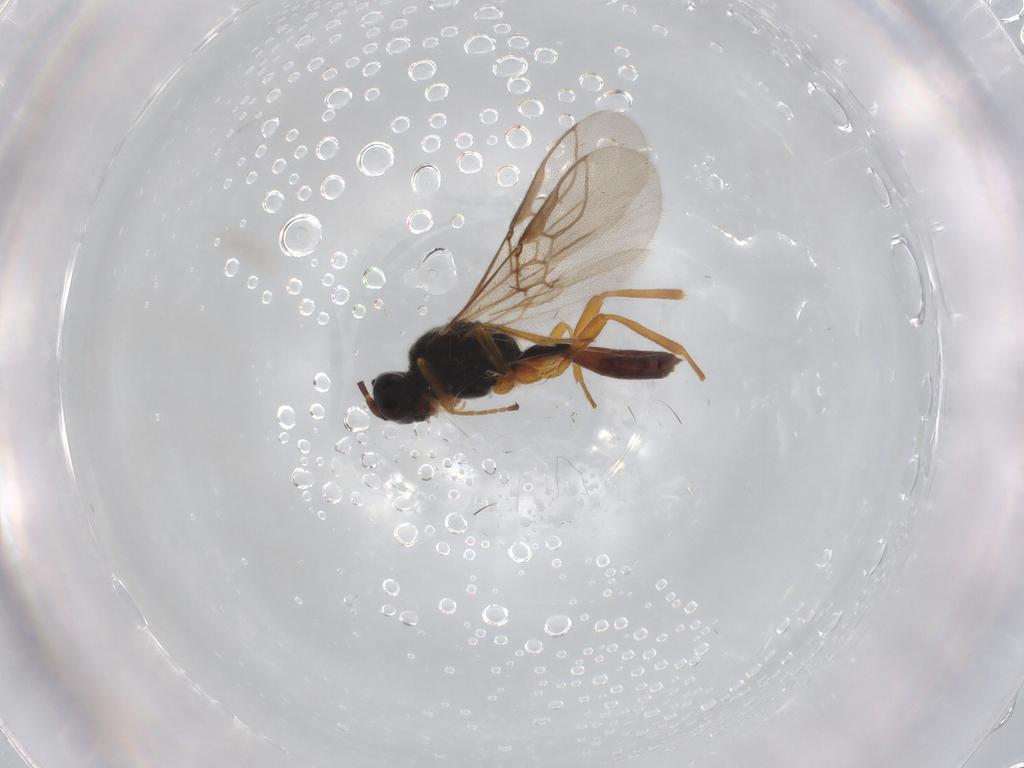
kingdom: Animalia
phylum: Arthropoda
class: Insecta
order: Hymenoptera
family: Braconidae
